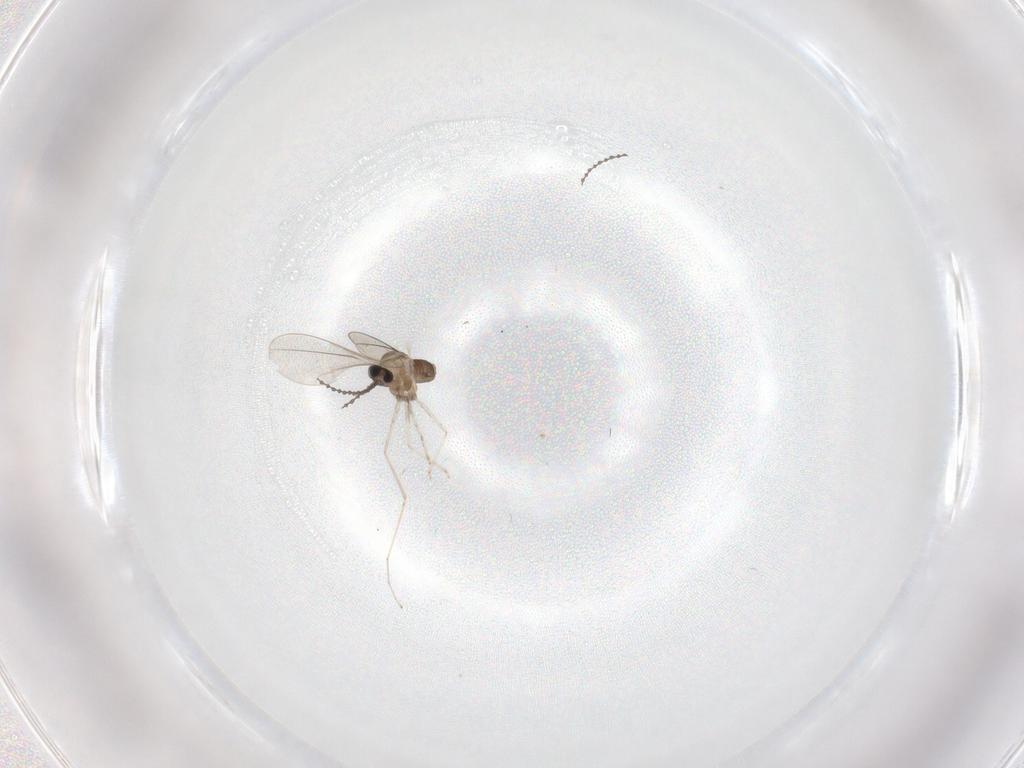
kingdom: Animalia
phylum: Arthropoda
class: Insecta
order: Diptera
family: Cecidomyiidae
